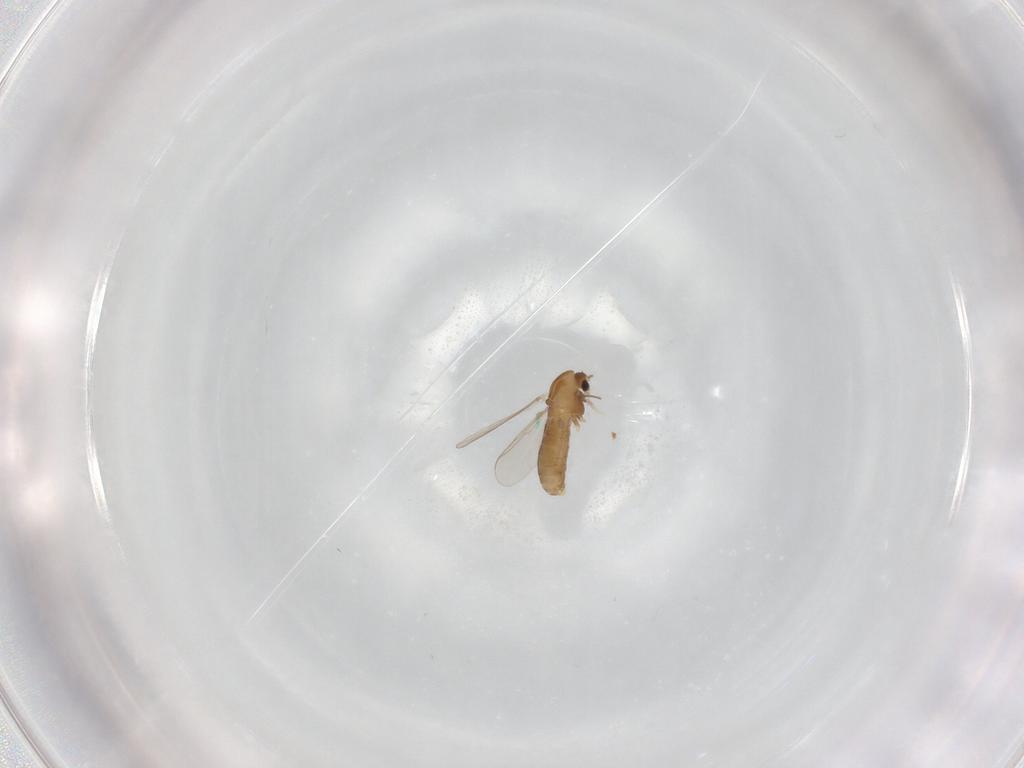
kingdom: Animalia
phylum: Arthropoda
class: Insecta
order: Diptera
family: Chironomidae
